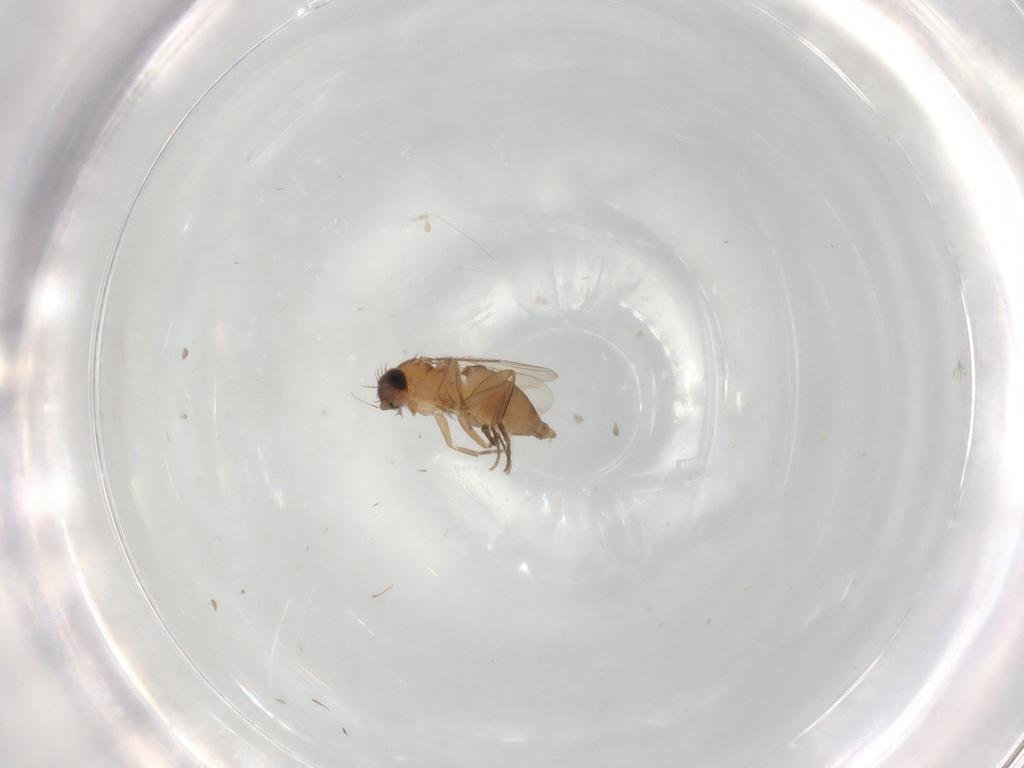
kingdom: Animalia
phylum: Arthropoda
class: Insecta
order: Diptera
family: Phoridae
